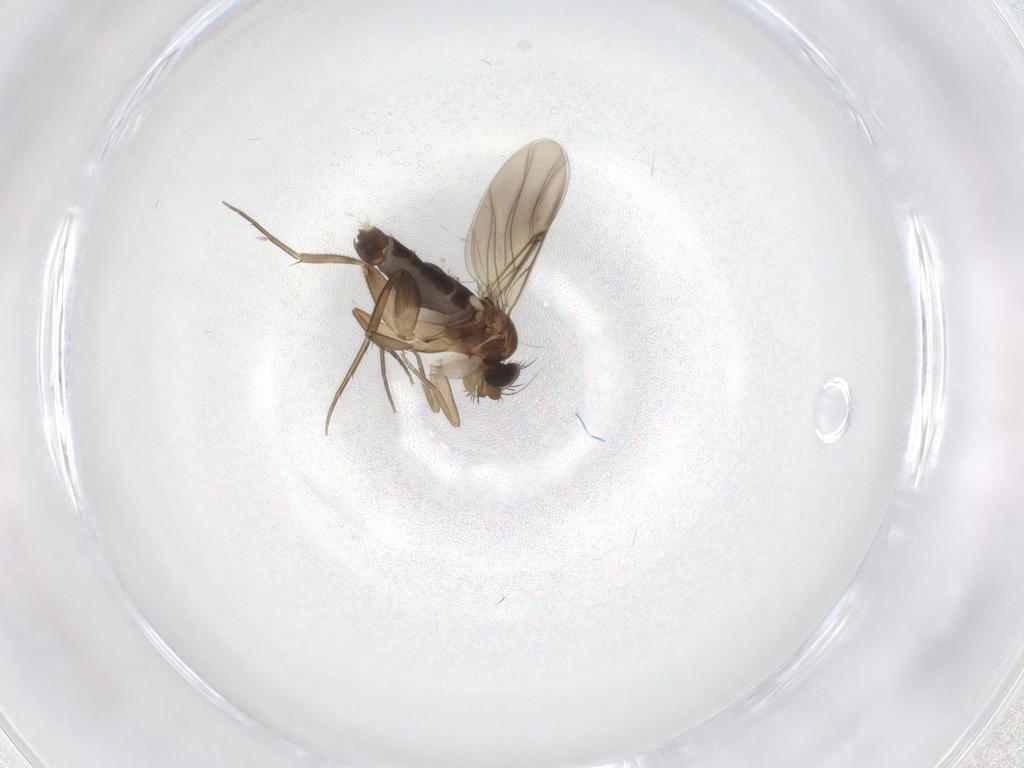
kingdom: Animalia
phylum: Arthropoda
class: Insecta
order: Diptera
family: Phoridae
